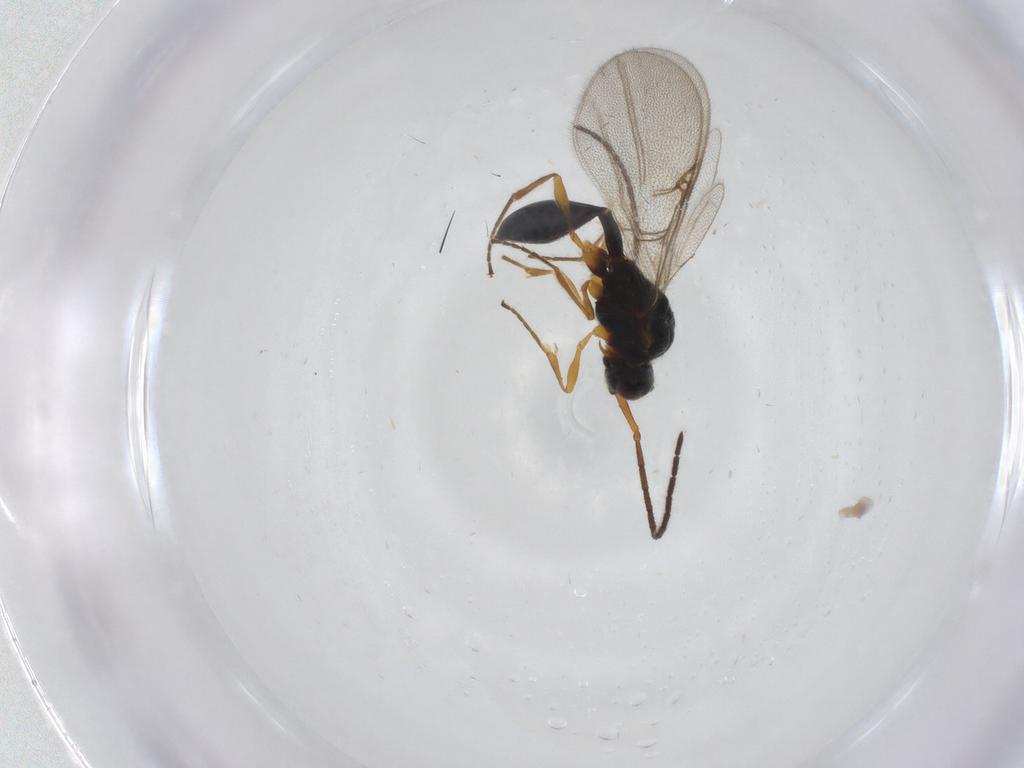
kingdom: Animalia
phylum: Arthropoda
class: Insecta
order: Hymenoptera
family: Diapriidae
